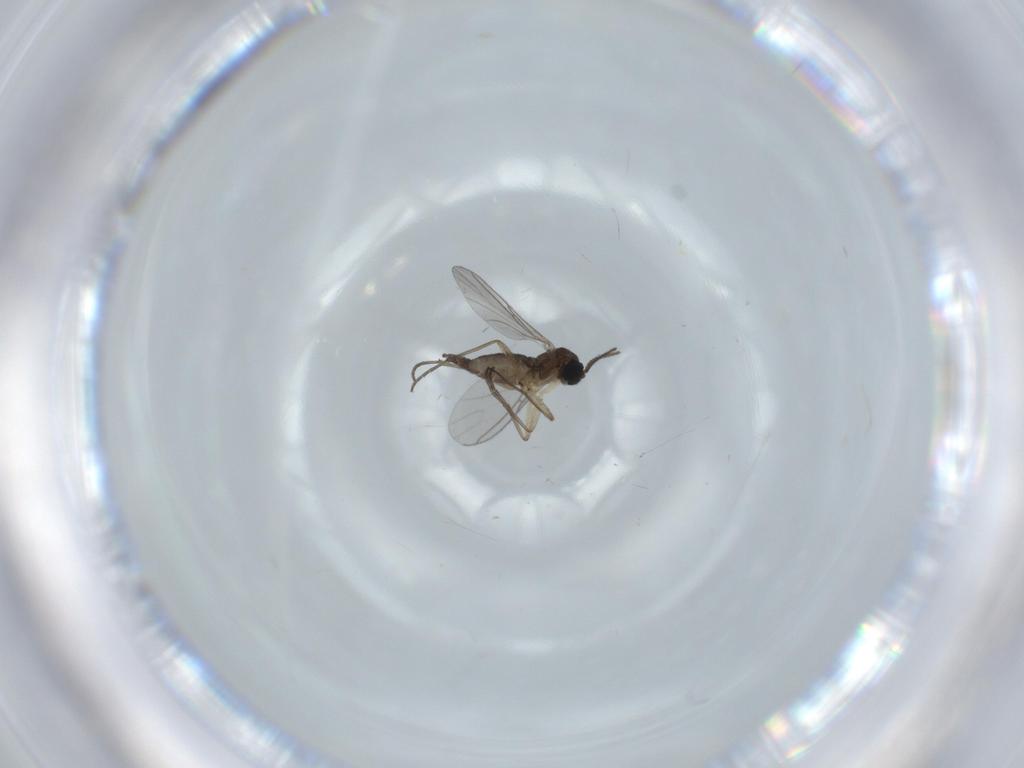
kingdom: Animalia
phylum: Arthropoda
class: Insecta
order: Diptera
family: Sciaridae
